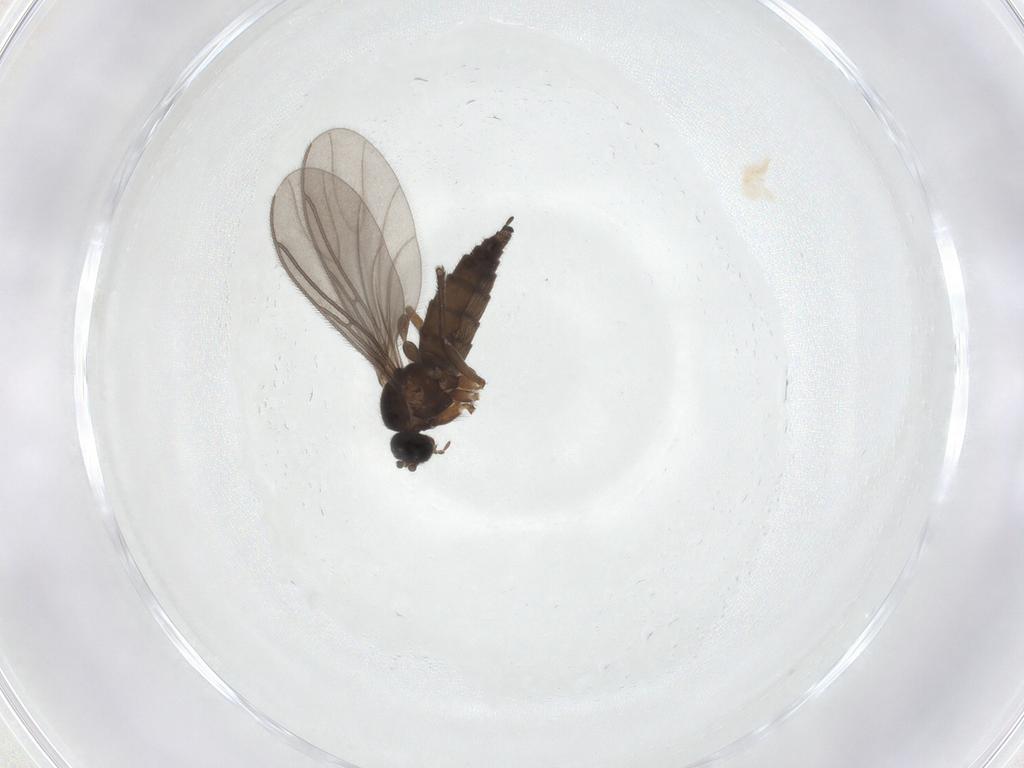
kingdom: Animalia
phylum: Arthropoda
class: Insecta
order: Diptera
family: Sciaridae
